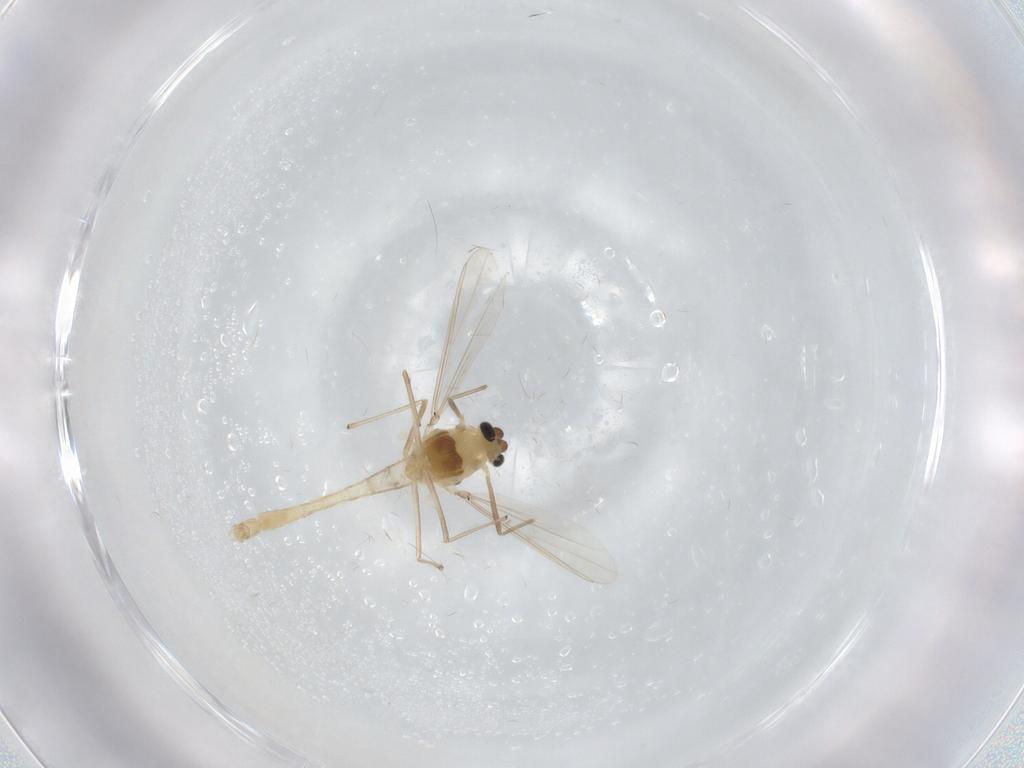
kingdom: Animalia
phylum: Arthropoda
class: Insecta
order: Diptera
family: Chironomidae
